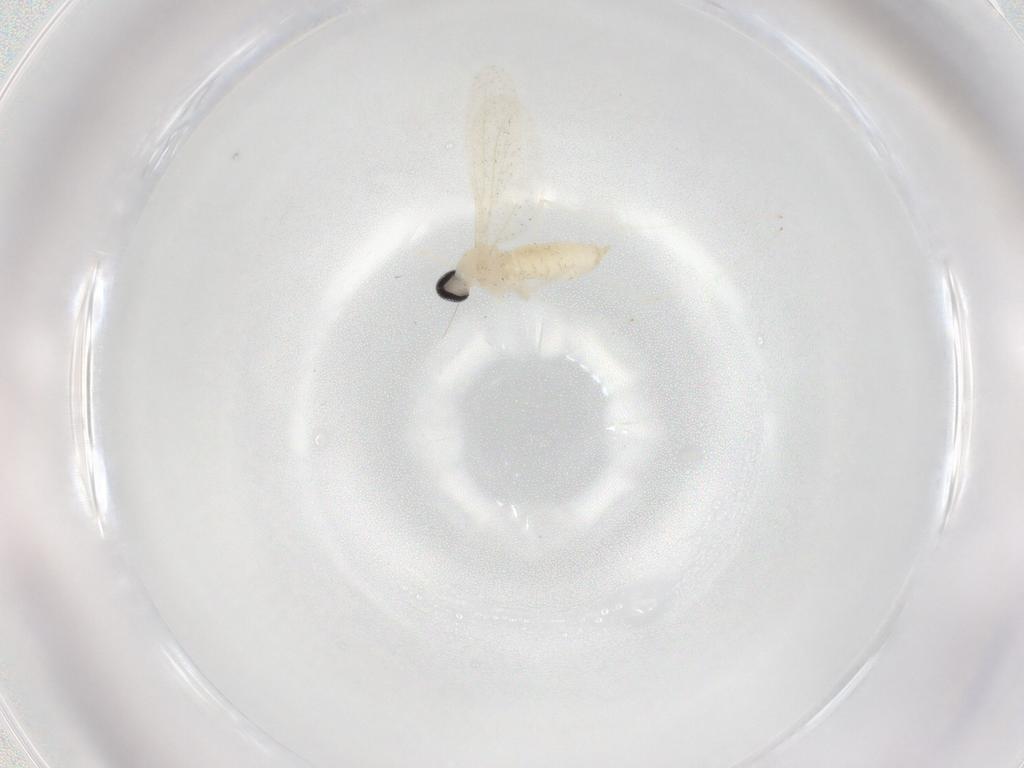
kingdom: Animalia
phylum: Arthropoda
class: Insecta
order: Diptera
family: Cecidomyiidae
